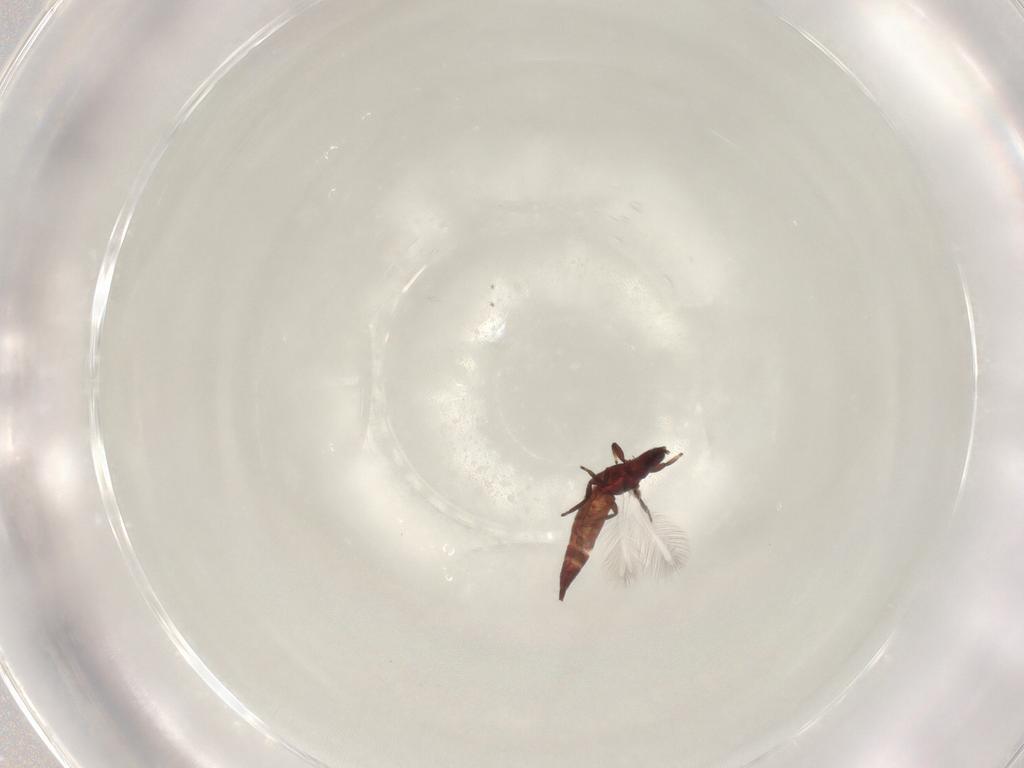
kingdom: Animalia
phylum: Arthropoda
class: Insecta
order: Thysanoptera
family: Phlaeothripidae
